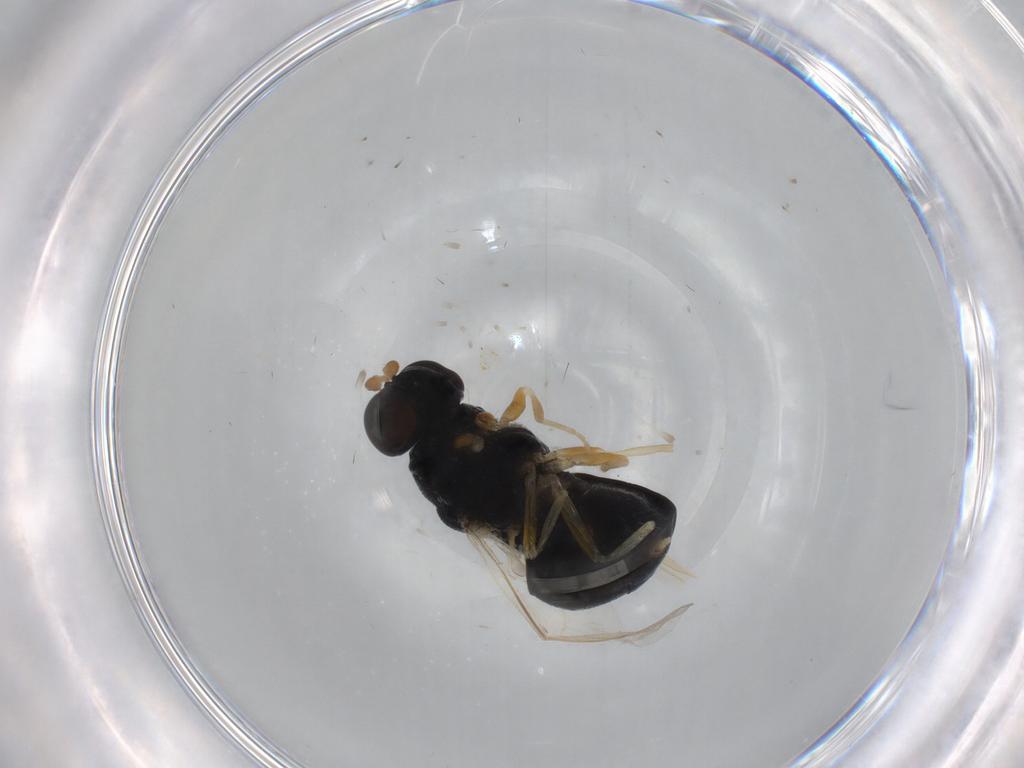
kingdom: Animalia
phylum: Arthropoda
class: Insecta
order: Diptera
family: Stratiomyidae
